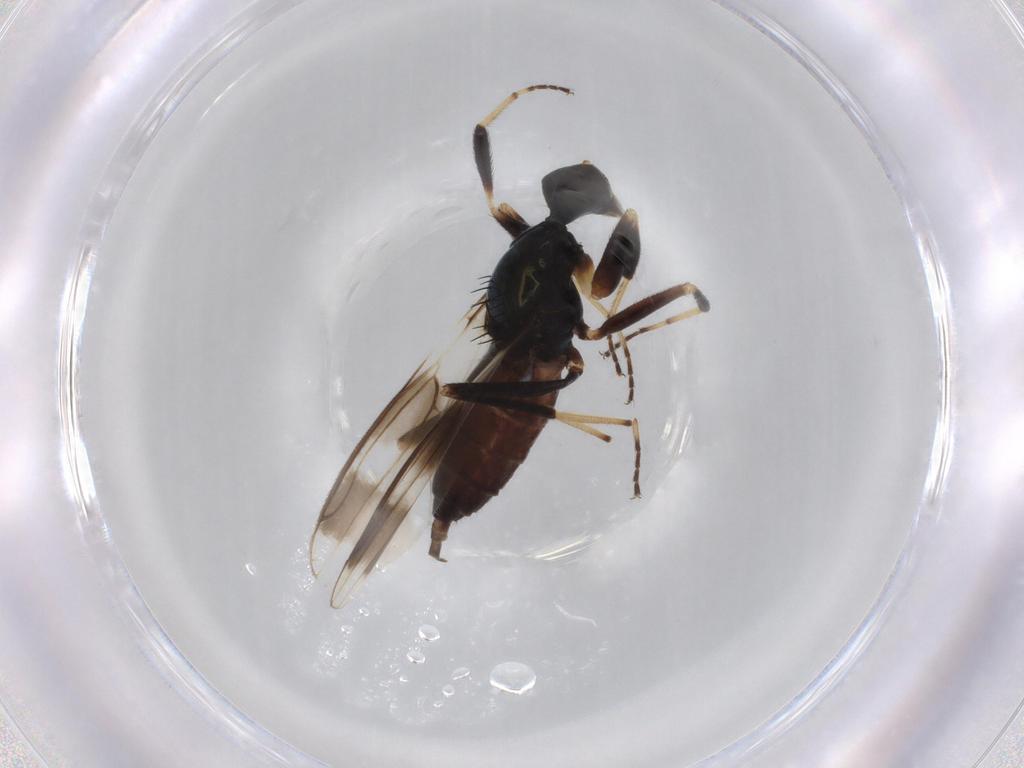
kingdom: Animalia
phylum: Arthropoda
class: Insecta
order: Diptera
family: Hybotidae
